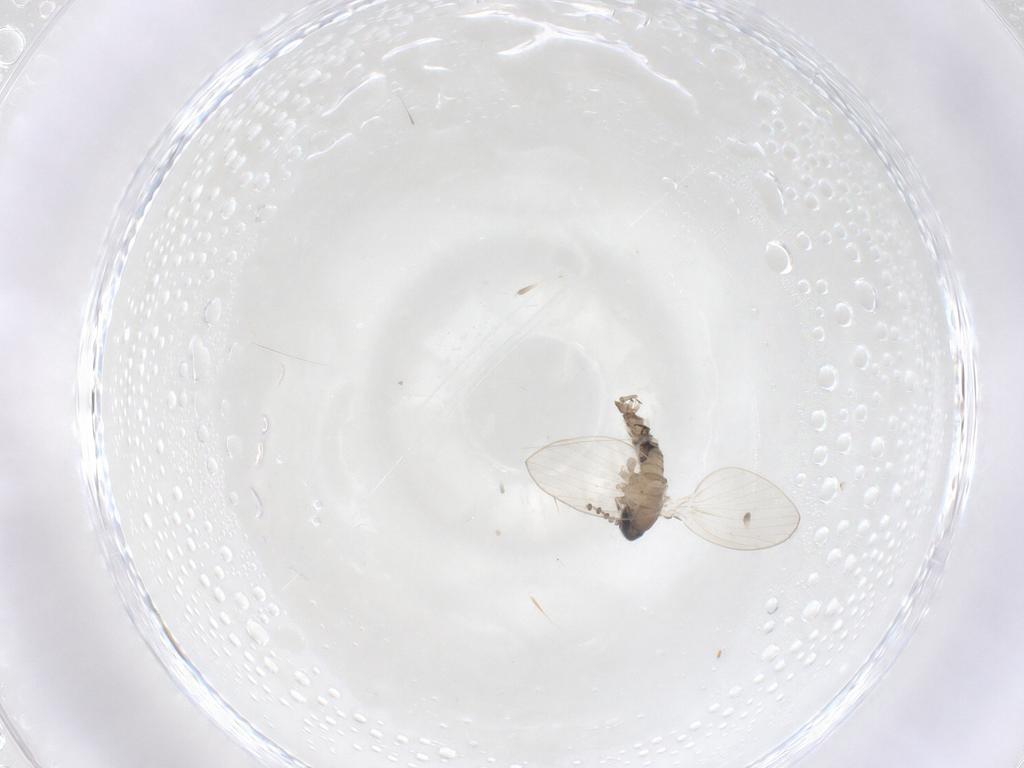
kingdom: Animalia
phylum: Arthropoda
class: Insecta
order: Diptera
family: Psychodidae
